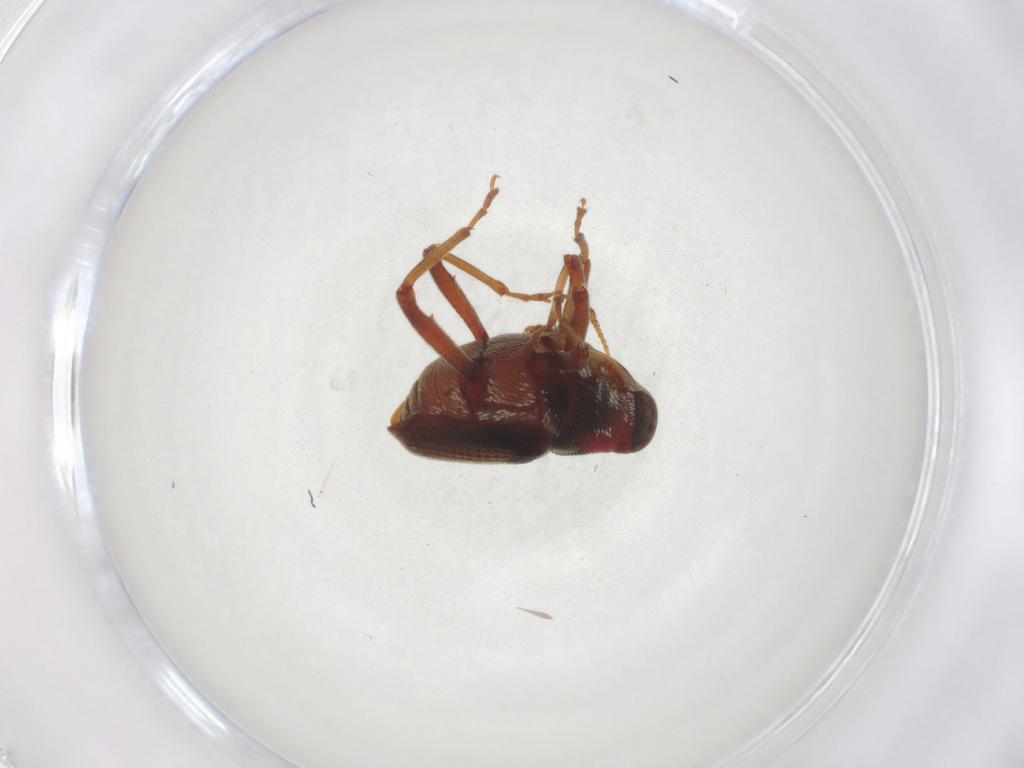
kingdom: Animalia
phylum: Arthropoda
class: Insecta
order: Coleoptera
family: Curculionidae
